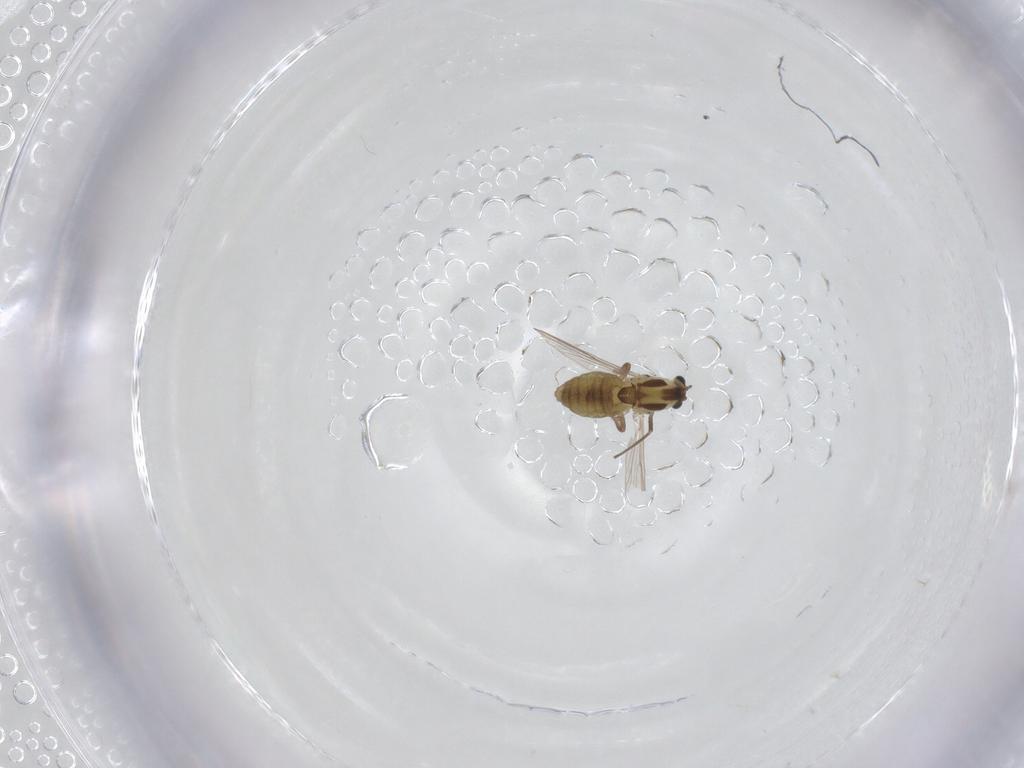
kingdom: Animalia
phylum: Arthropoda
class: Insecta
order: Diptera
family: Chironomidae
